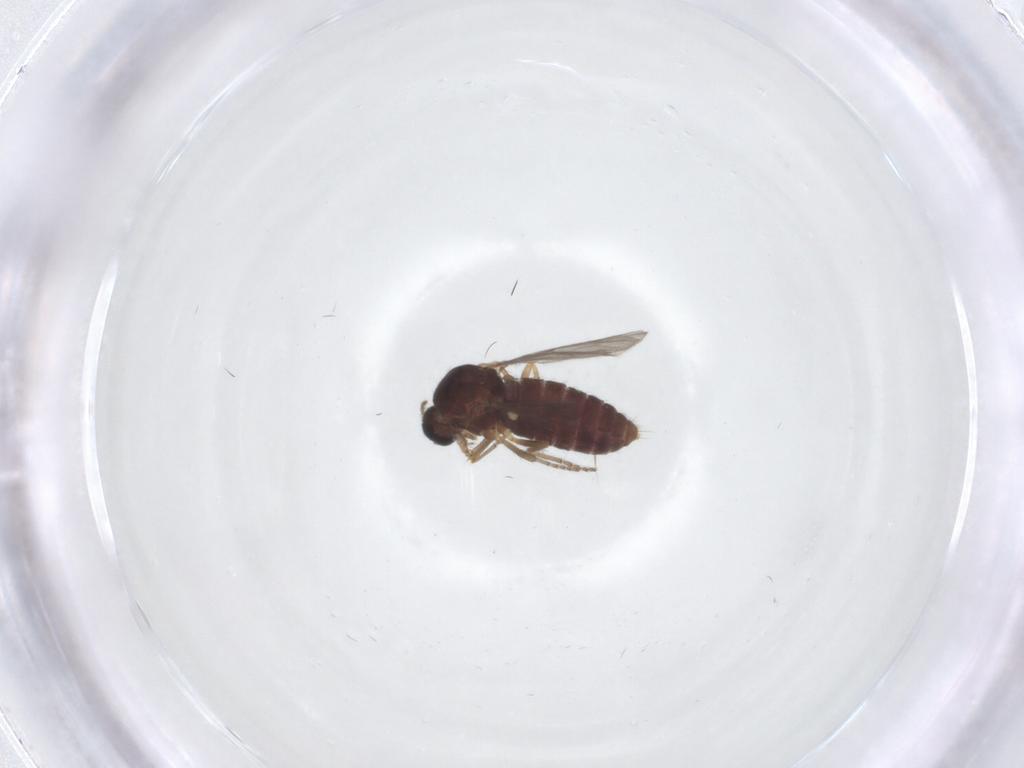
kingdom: Animalia
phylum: Arthropoda
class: Insecta
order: Diptera
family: Ceratopogonidae
